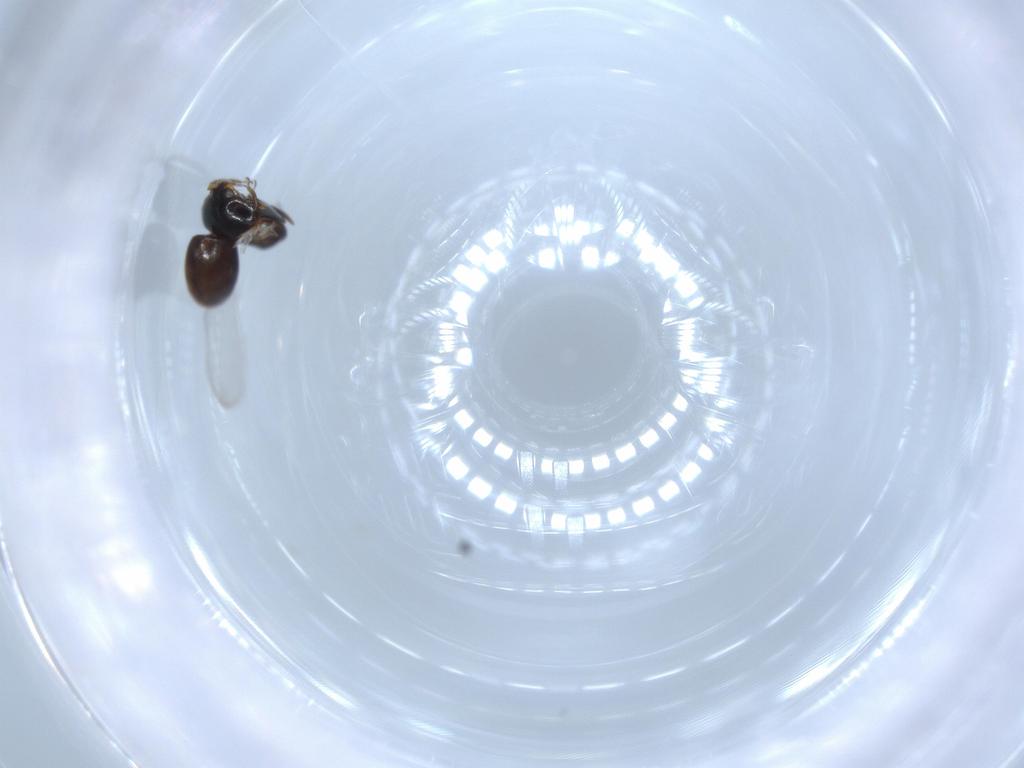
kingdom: Animalia
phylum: Arthropoda
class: Insecta
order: Coleoptera
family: Corylophidae
